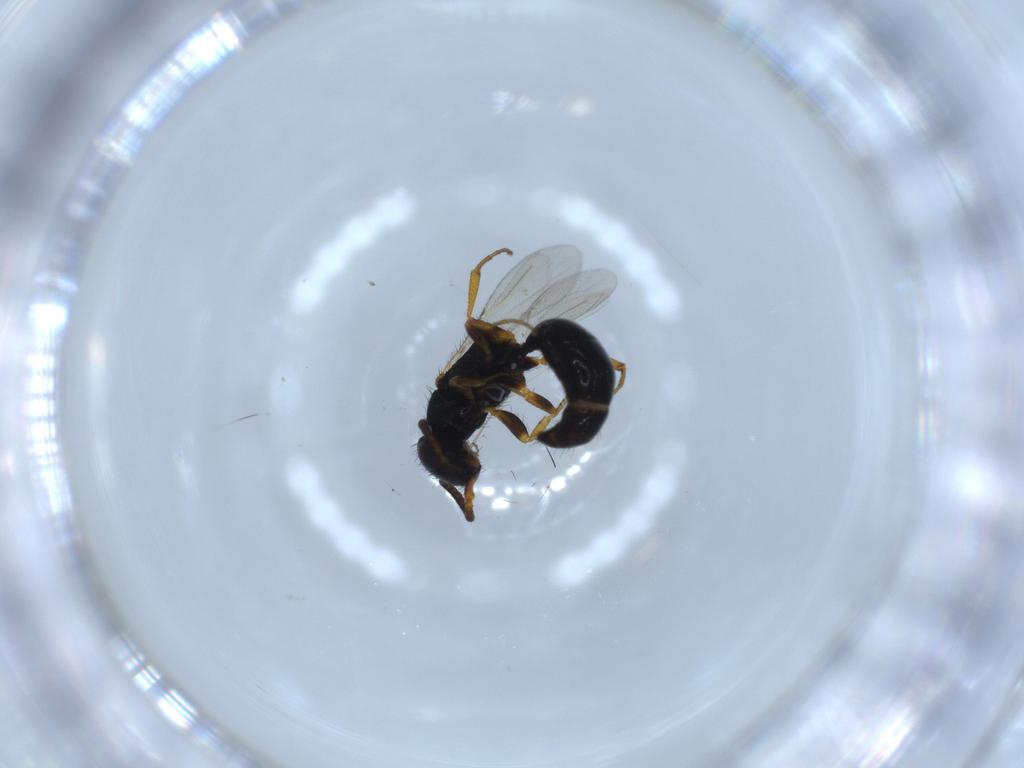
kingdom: Animalia
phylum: Arthropoda
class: Insecta
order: Hymenoptera
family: Bethylidae
